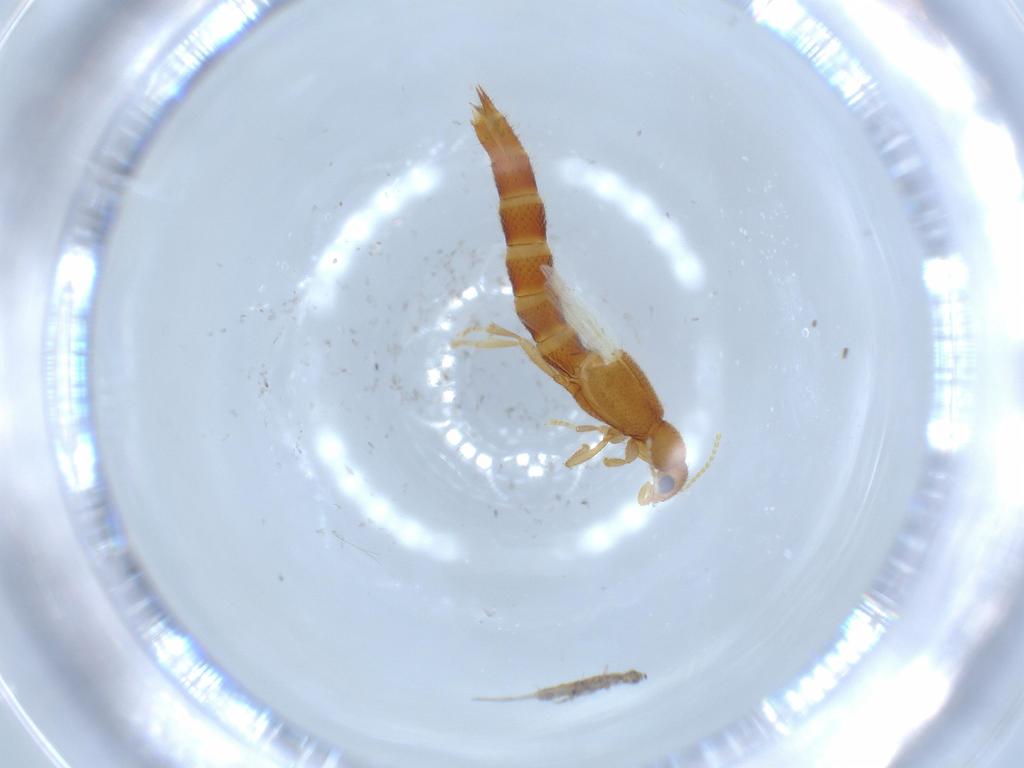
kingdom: Animalia
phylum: Arthropoda
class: Insecta
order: Coleoptera
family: Staphylinidae
